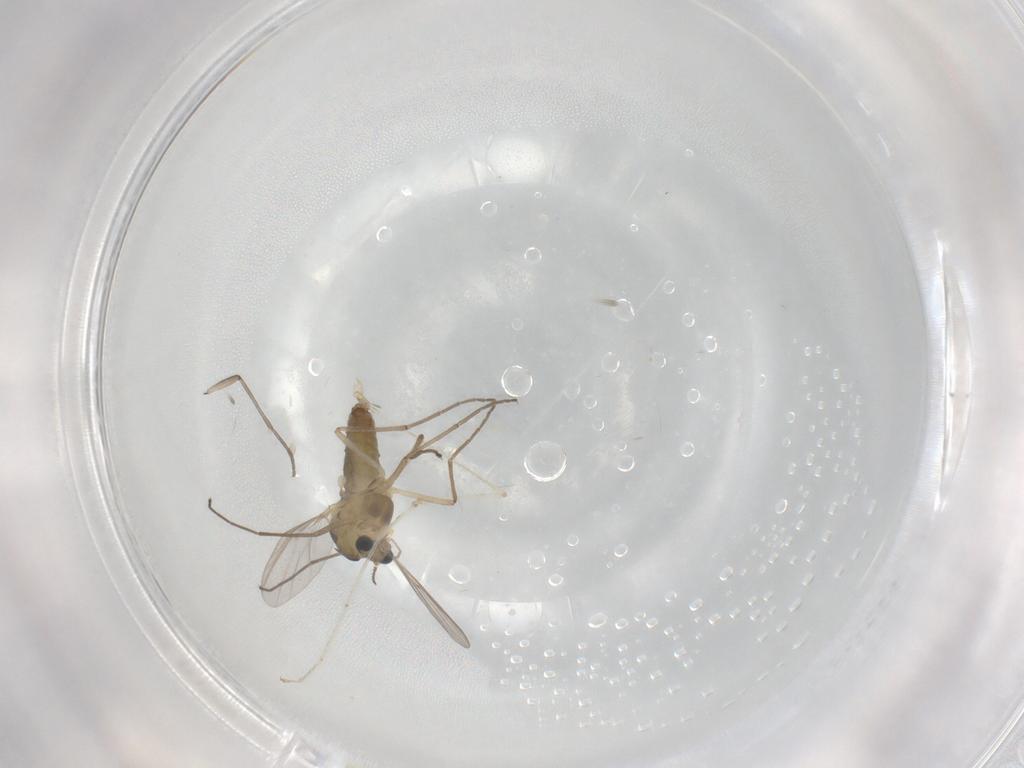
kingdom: Animalia
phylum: Arthropoda
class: Insecta
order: Diptera
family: Chironomidae
